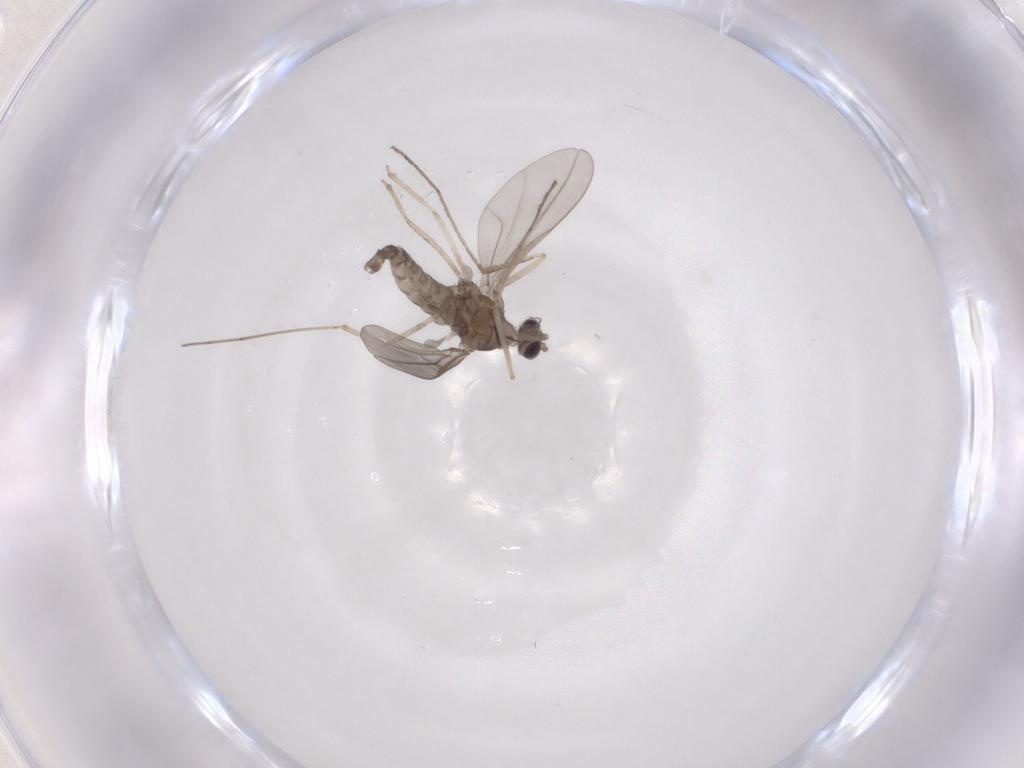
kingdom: Animalia
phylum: Arthropoda
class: Insecta
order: Diptera
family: Cecidomyiidae
